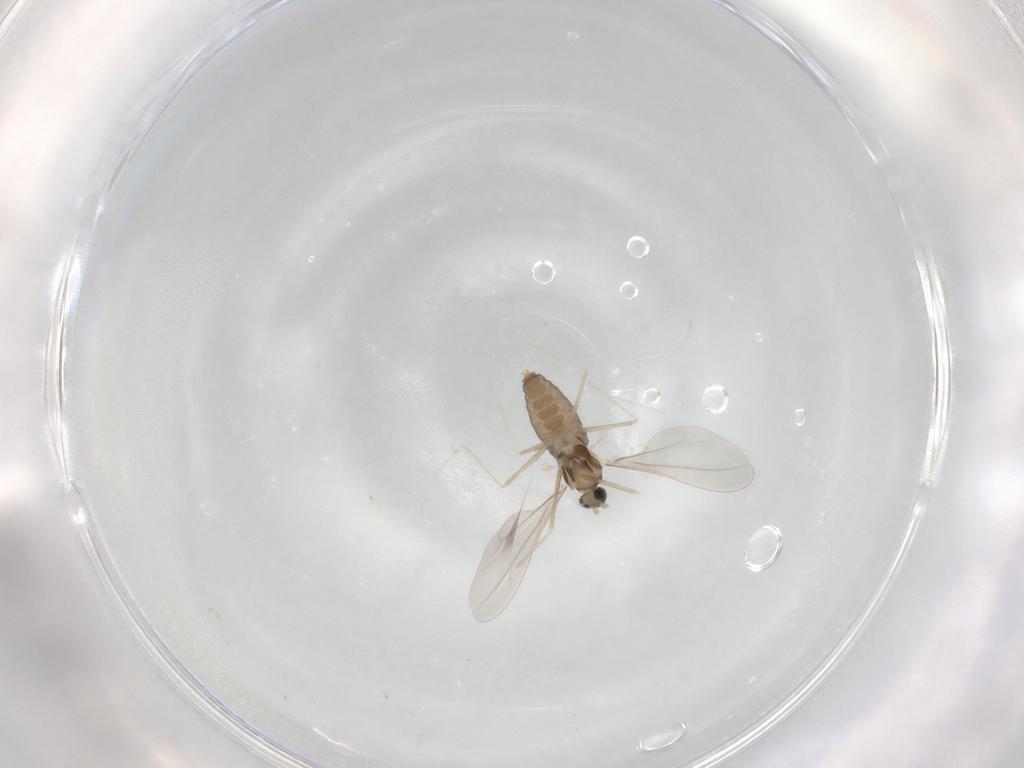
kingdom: Animalia
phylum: Arthropoda
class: Insecta
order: Diptera
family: Cecidomyiidae
